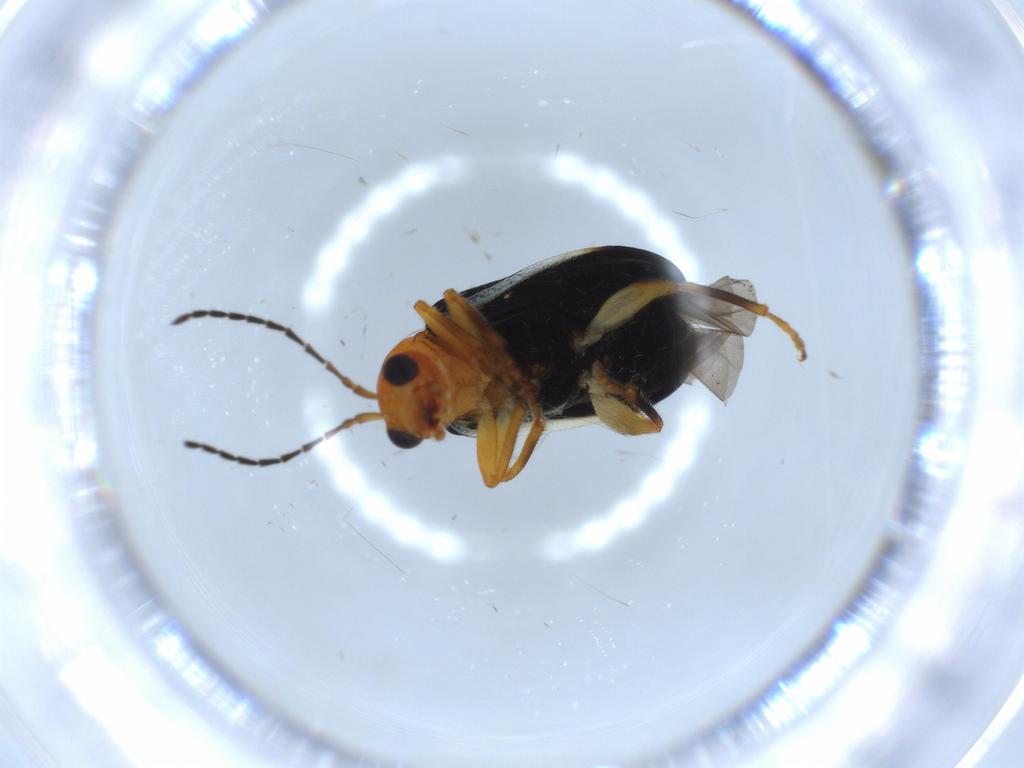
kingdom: Animalia
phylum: Arthropoda
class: Insecta
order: Coleoptera
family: Chrysomelidae
